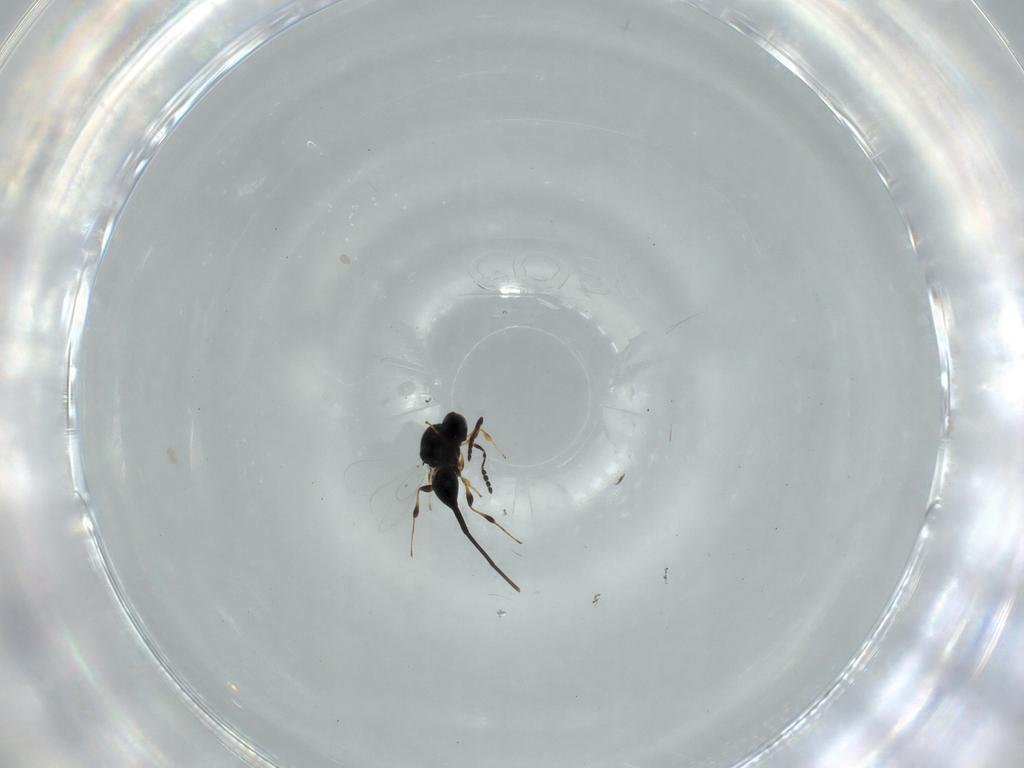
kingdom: Animalia
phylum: Arthropoda
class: Insecta
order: Hymenoptera
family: Platygastridae
